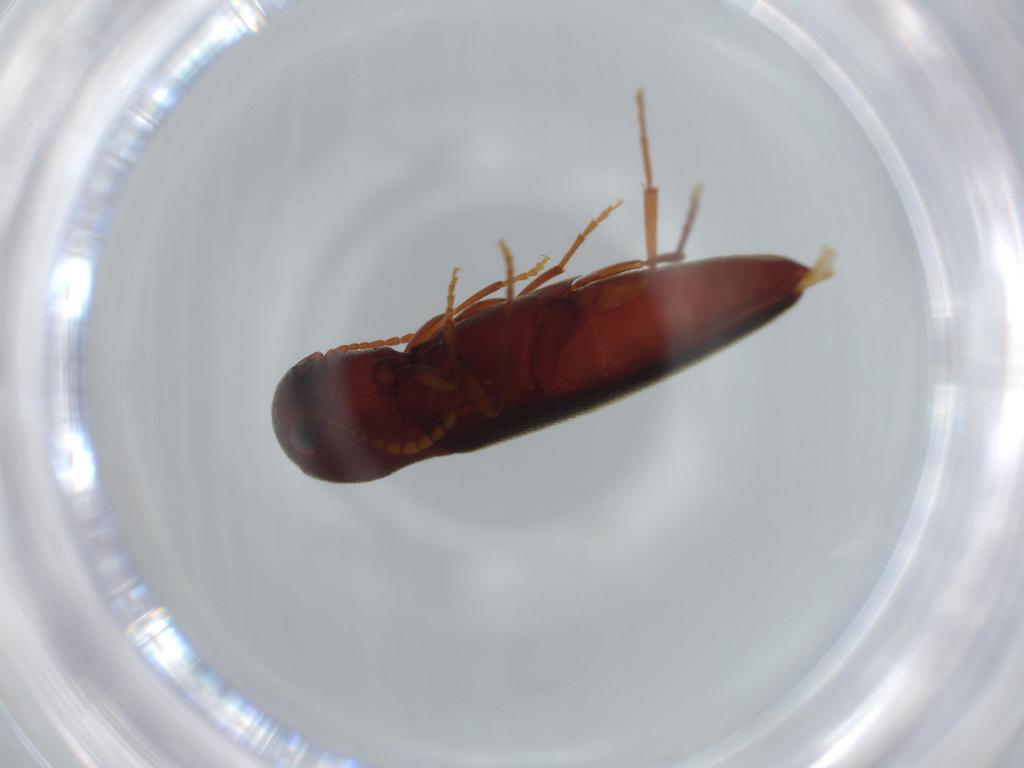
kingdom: Animalia
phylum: Arthropoda
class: Insecta
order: Coleoptera
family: Eucnemidae
